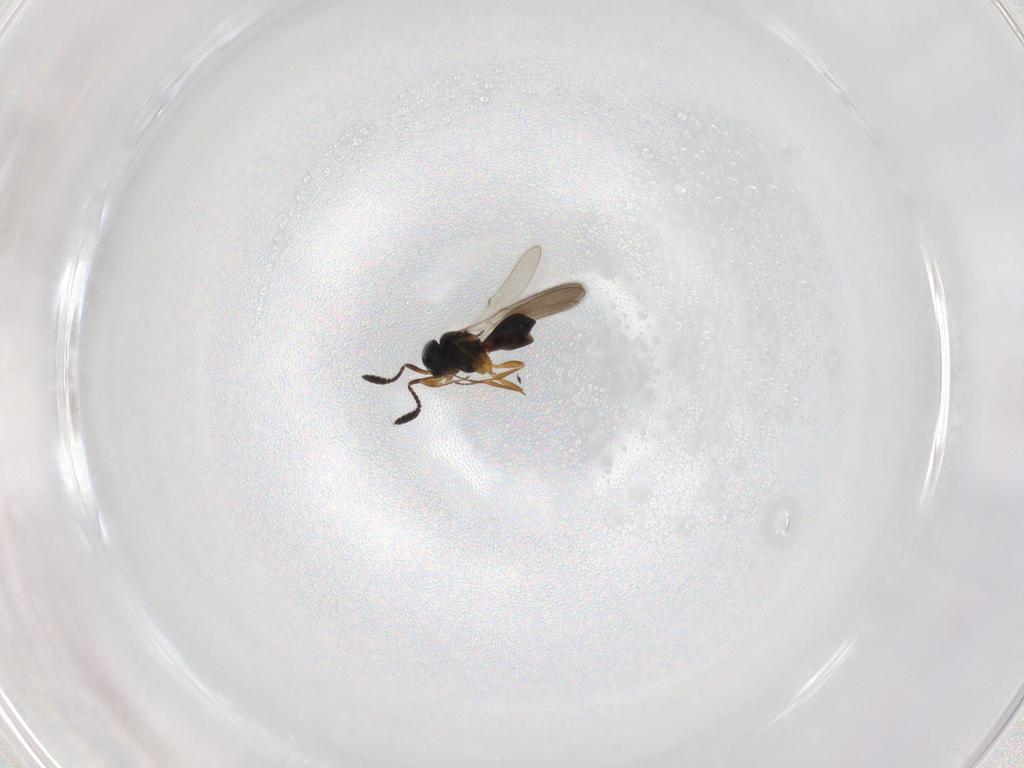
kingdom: Animalia
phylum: Arthropoda
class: Insecta
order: Hymenoptera
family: Scelionidae
